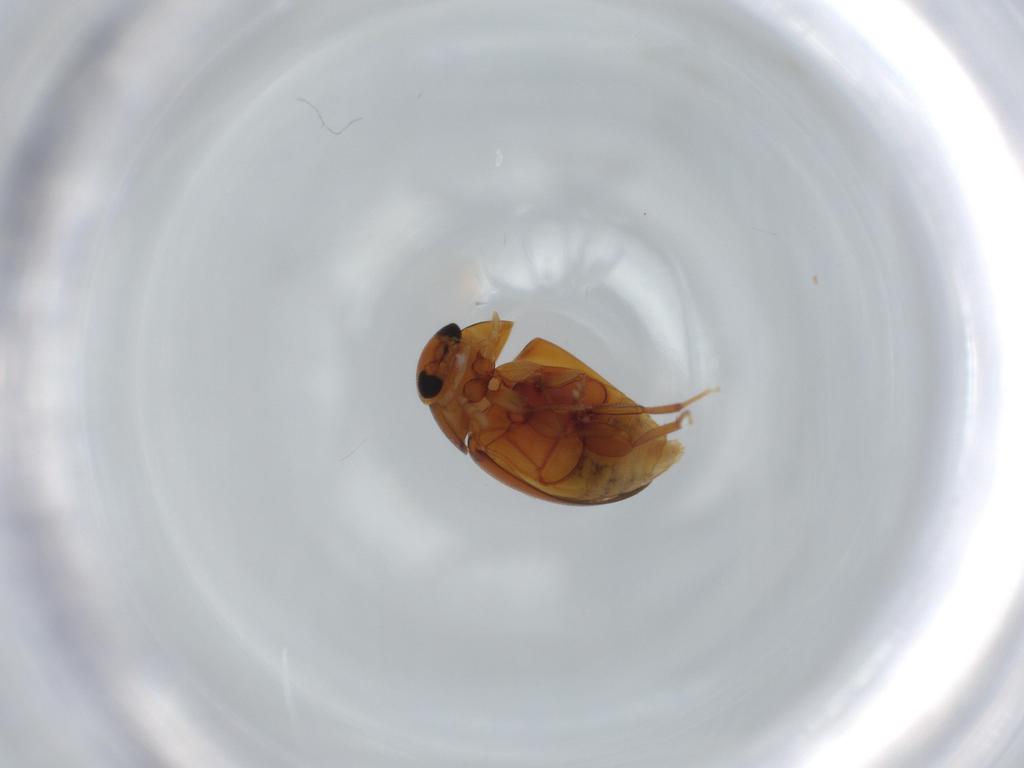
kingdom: Animalia
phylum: Arthropoda
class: Insecta
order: Coleoptera
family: Phalacridae
